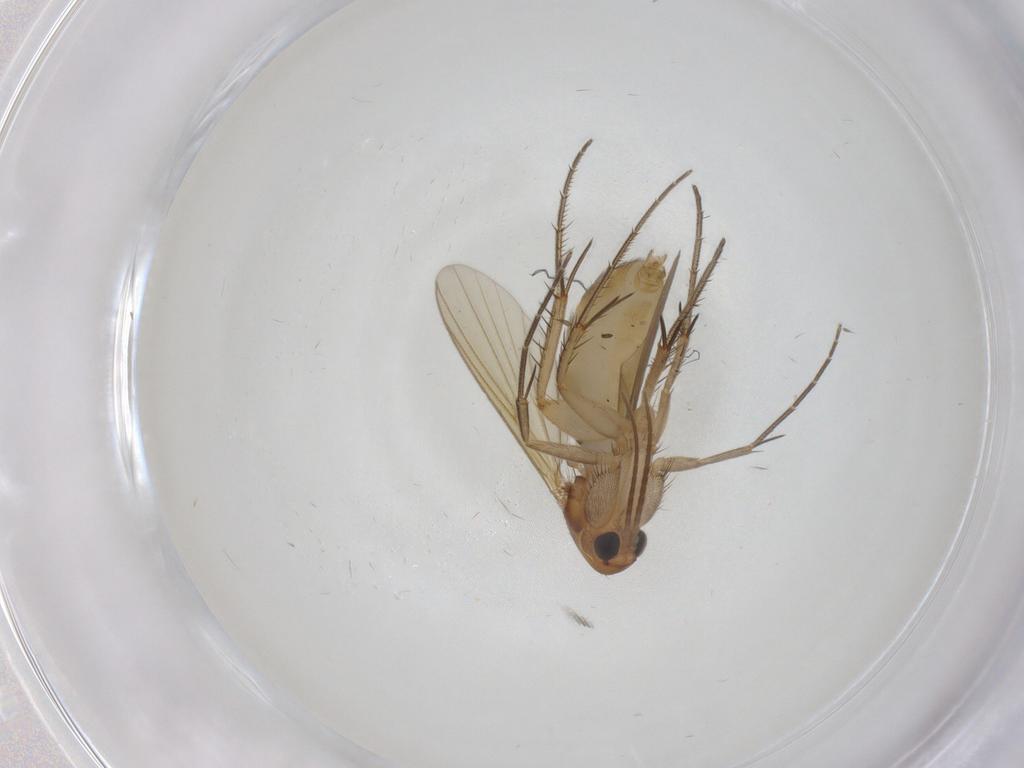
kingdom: Animalia
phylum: Arthropoda
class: Insecta
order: Diptera
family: Mycetophilidae
